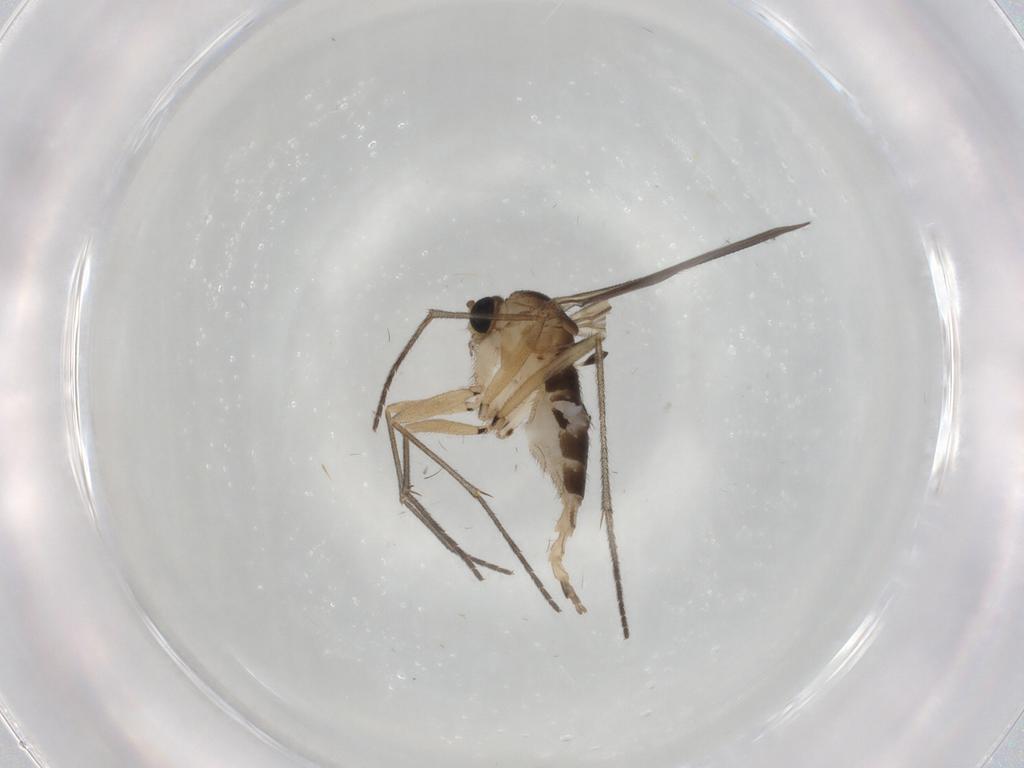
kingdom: Animalia
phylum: Arthropoda
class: Insecta
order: Diptera
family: Sciaridae
